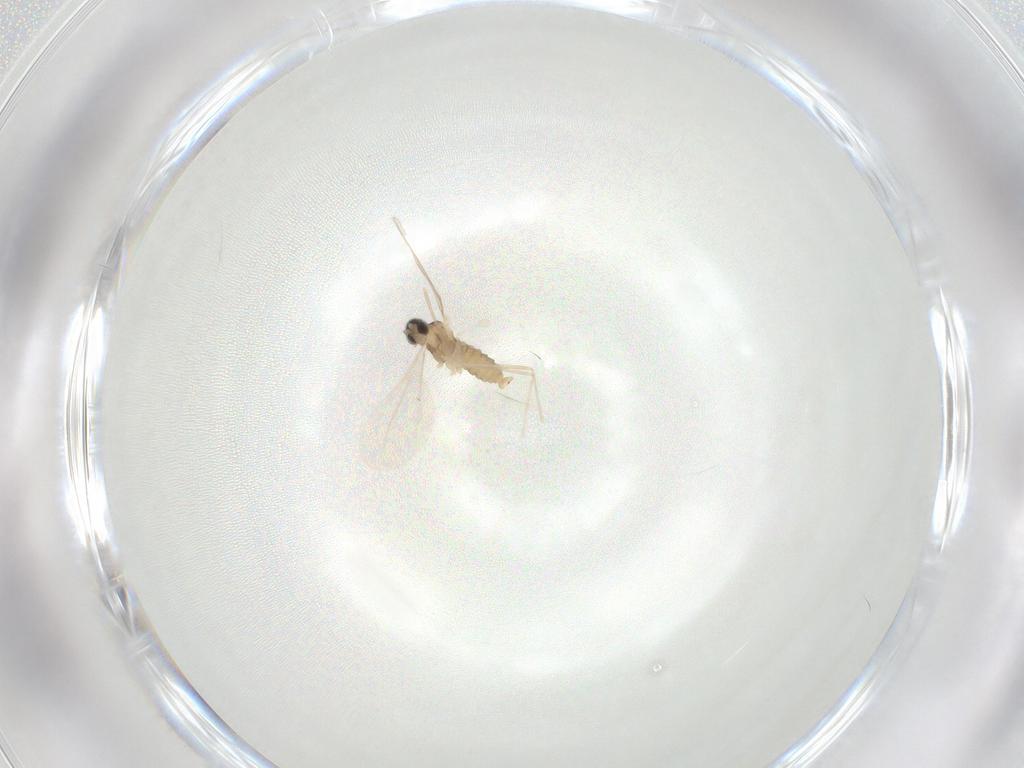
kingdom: Animalia
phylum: Arthropoda
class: Insecta
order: Diptera
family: Cecidomyiidae
